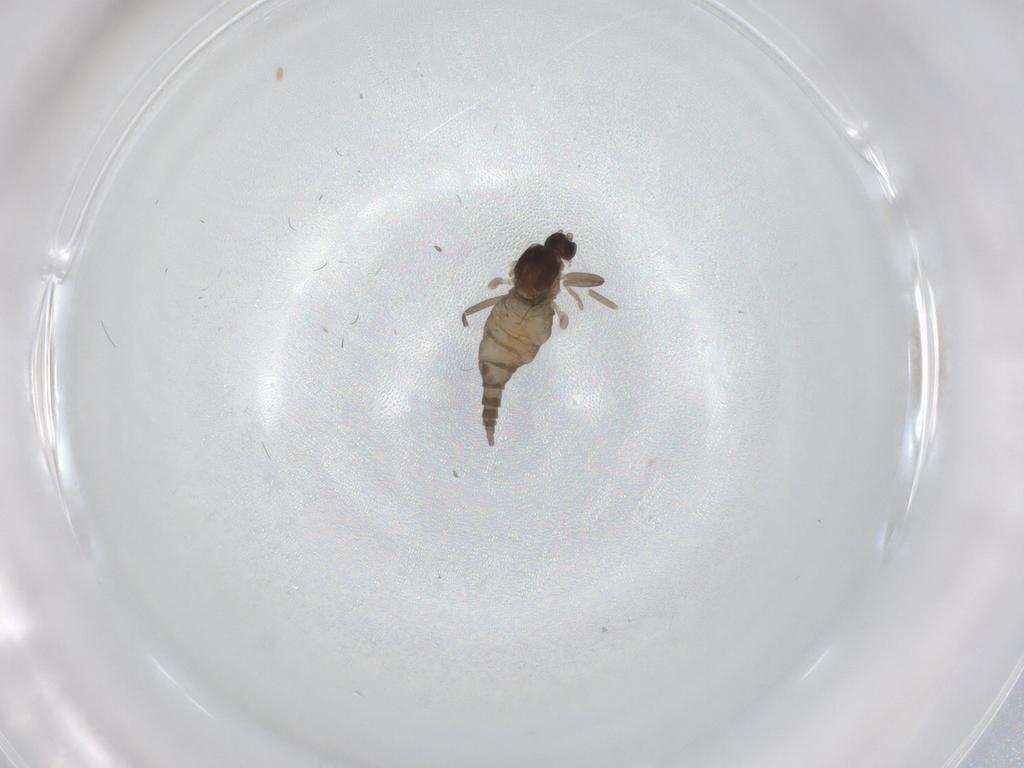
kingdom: Animalia
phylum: Arthropoda
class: Insecta
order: Diptera
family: Cecidomyiidae
